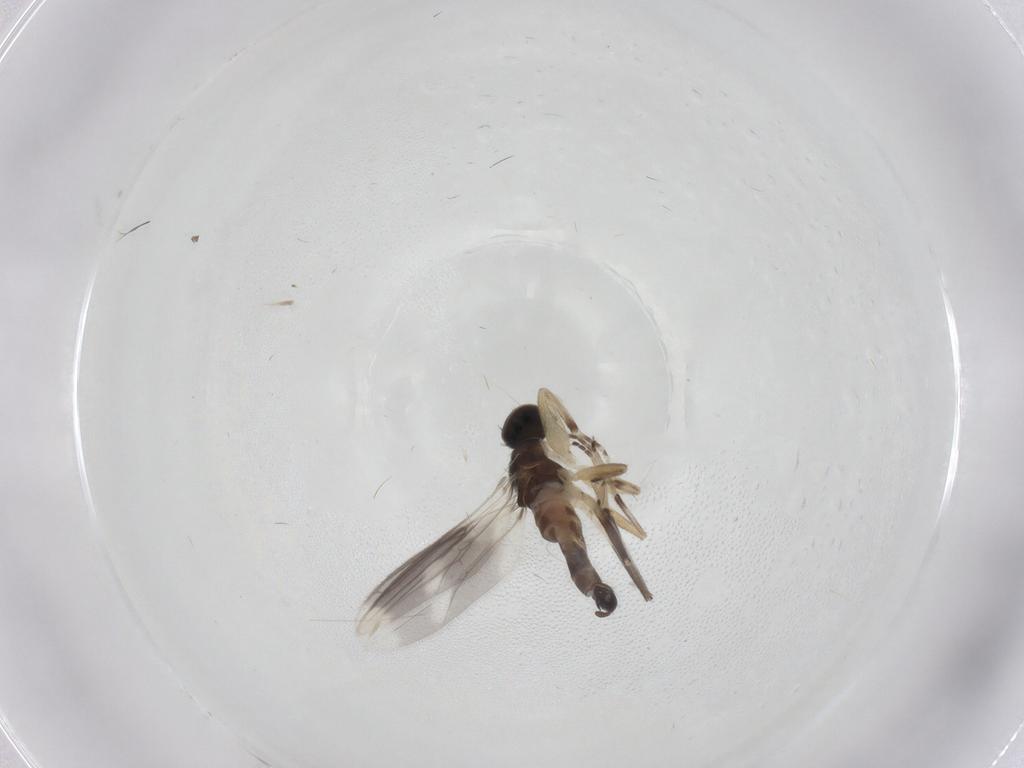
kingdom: Animalia
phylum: Arthropoda
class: Insecta
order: Diptera
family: Chironomidae
